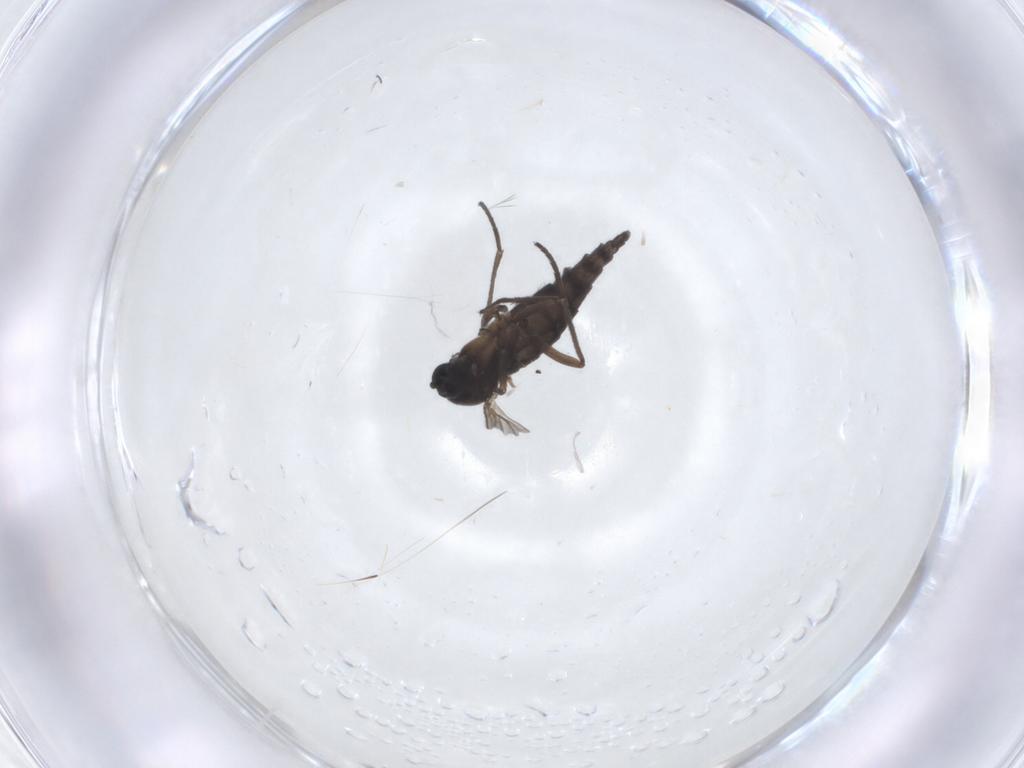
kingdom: Animalia
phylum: Arthropoda
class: Insecta
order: Diptera
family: Sciaridae
